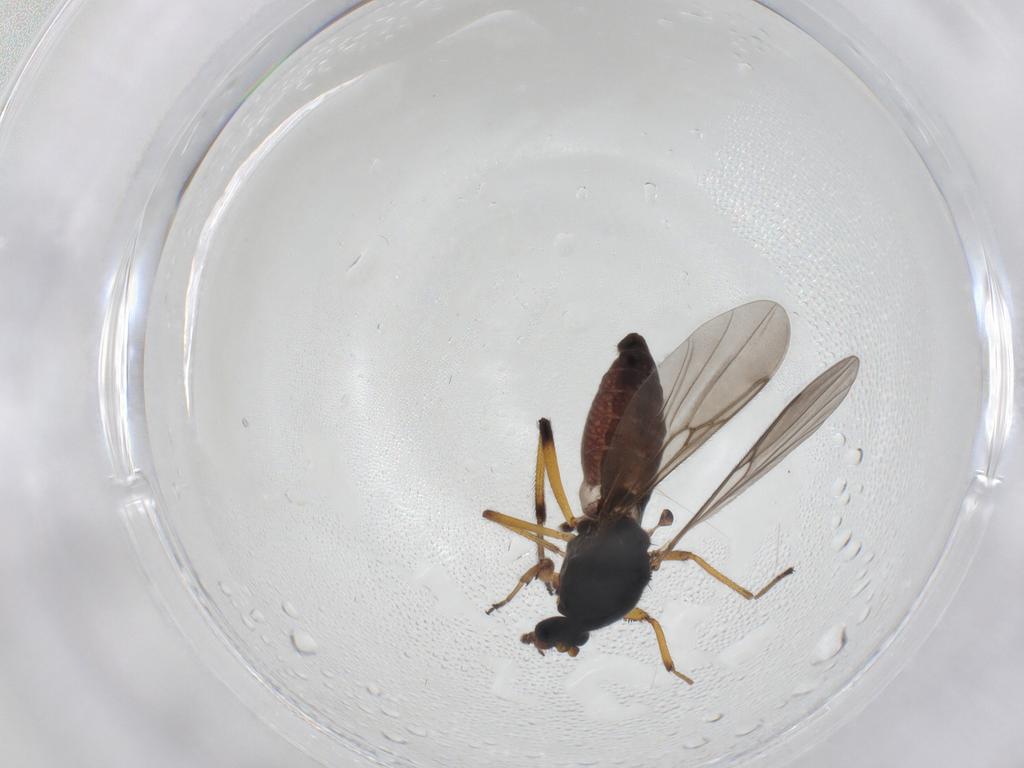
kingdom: Animalia
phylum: Arthropoda
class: Insecta
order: Diptera
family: Ceratopogonidae
